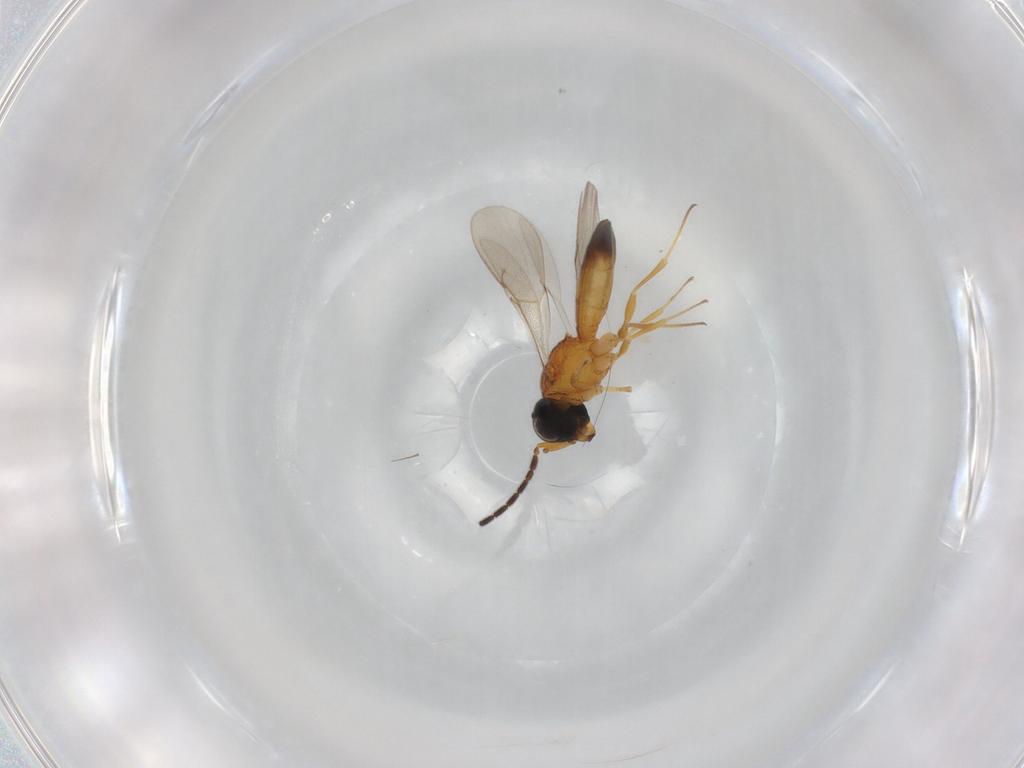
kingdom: Animalia
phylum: Arthropoda
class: Insecta
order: Hymenoptera
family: Scelionidae
